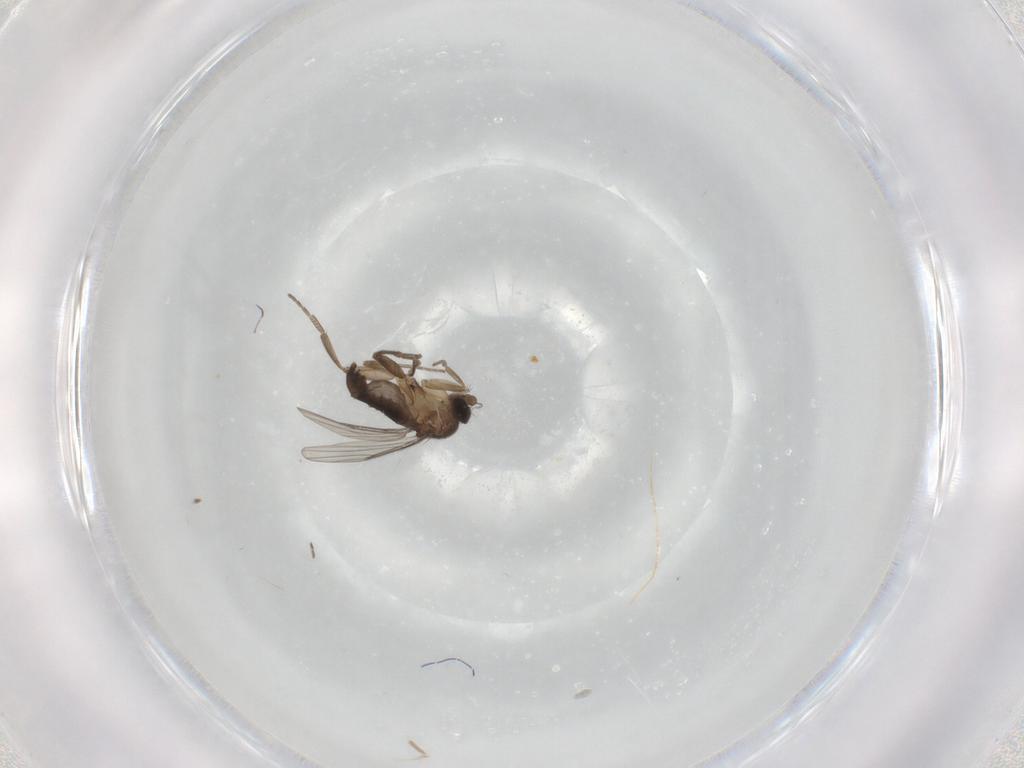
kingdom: Animalia
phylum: Arthropoda
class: Insecta
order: Diptera
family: Phoridae
